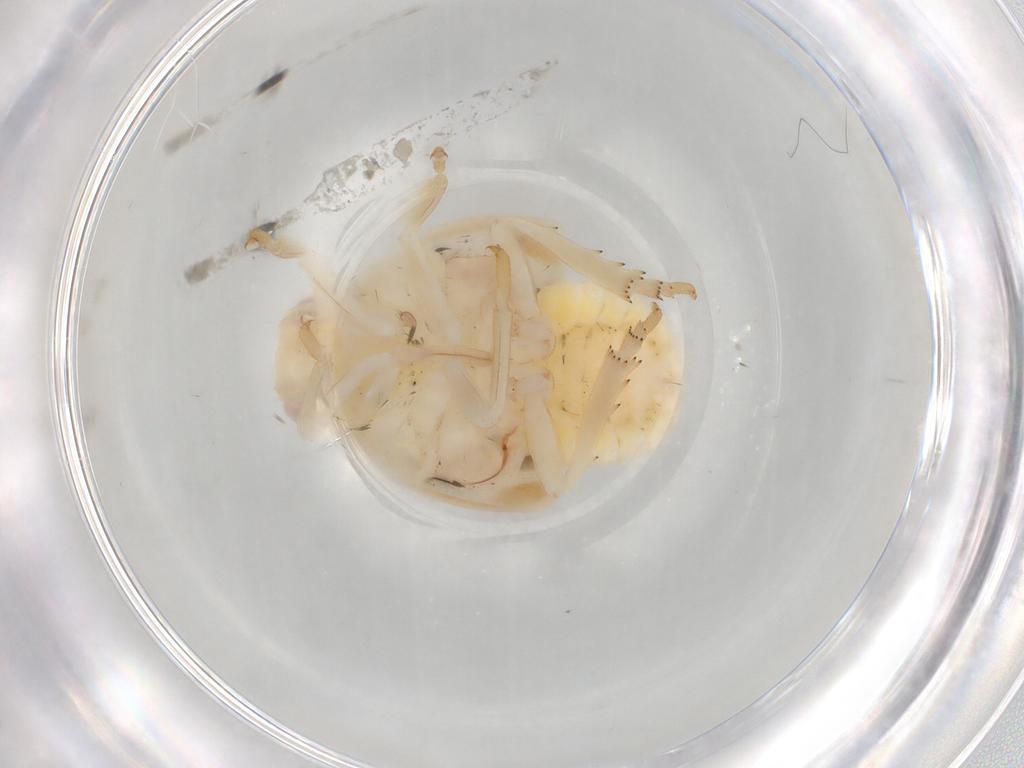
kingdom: Animalia
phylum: Arthropoda
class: Insecta
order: Hemiptera
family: Flatidae
